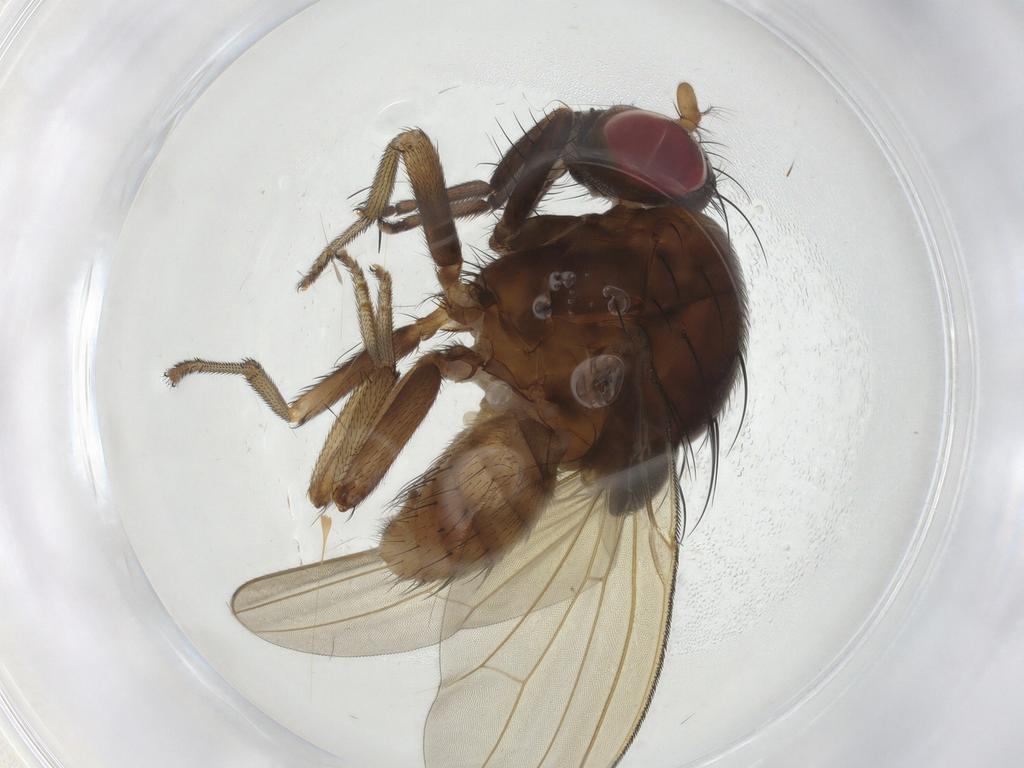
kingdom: Animalia
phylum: Arthropoda
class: Insecta
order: Diptera
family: Lauxaniidae
